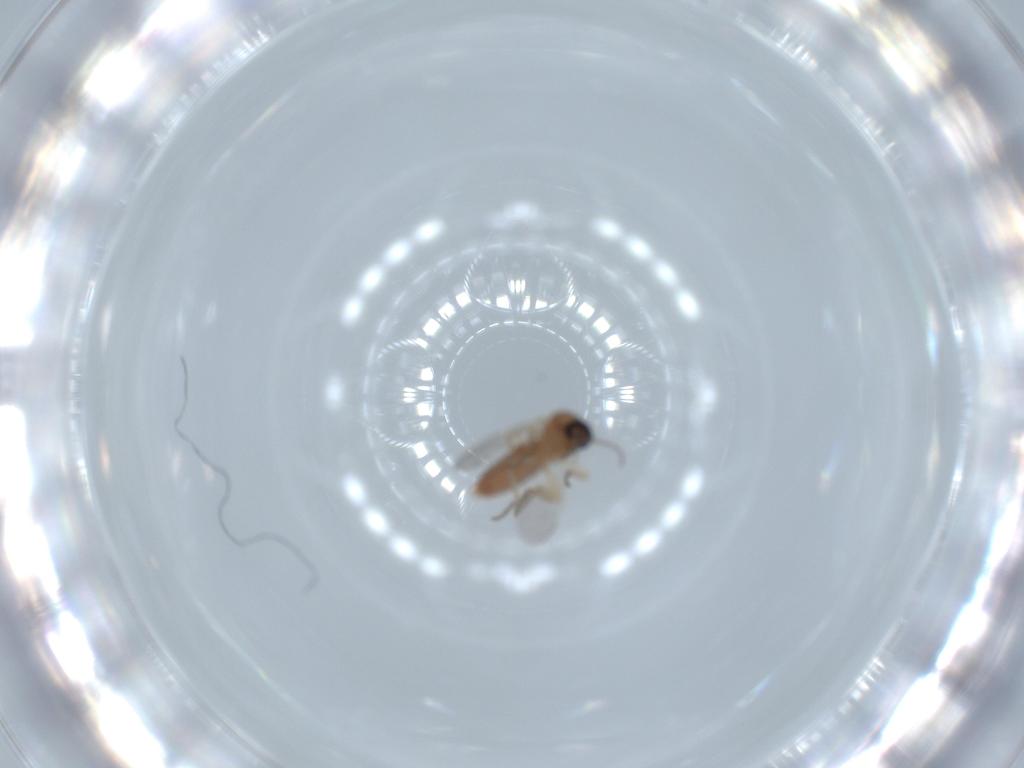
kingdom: Animalia
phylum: Arthropoda
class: Insecta
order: Diptera
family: Ceratopogonidae
